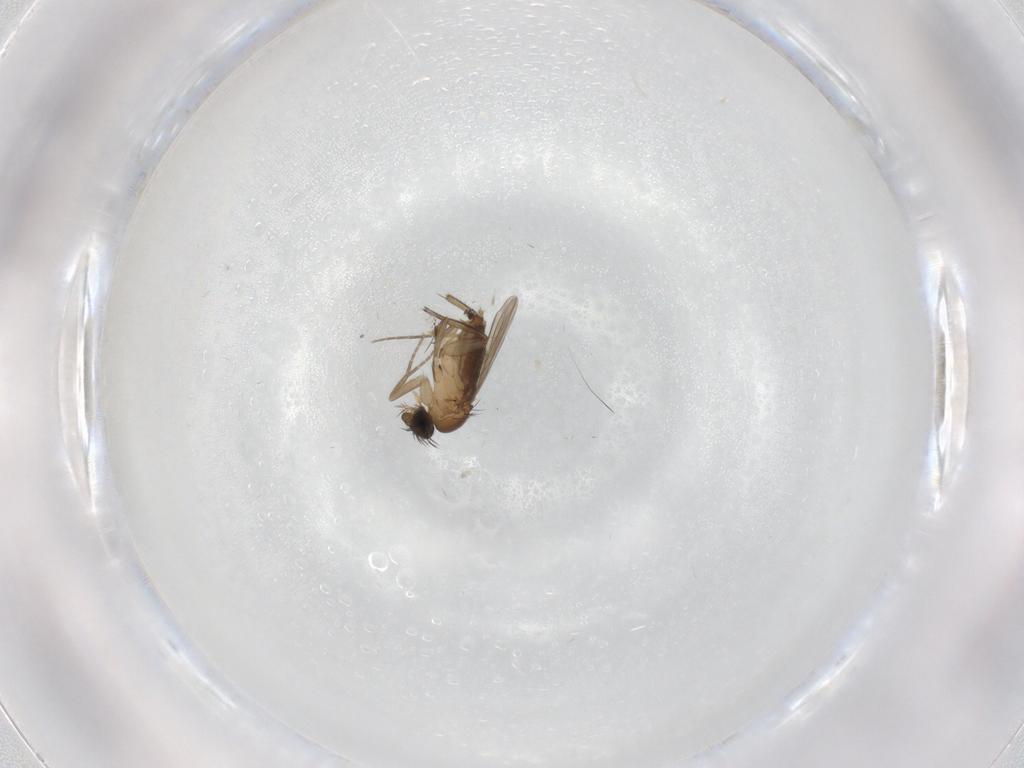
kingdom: Animalia
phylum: Arthropoda
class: Insecta
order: Diptera
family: Phoridae
